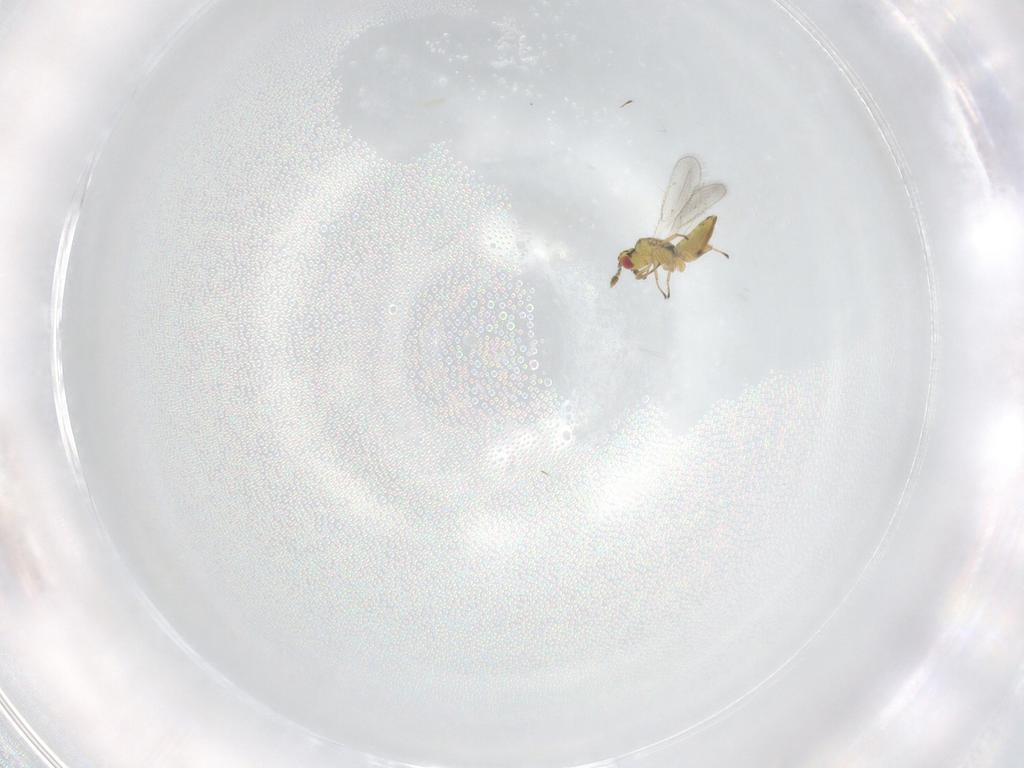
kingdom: Animalia
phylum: Arthropoda
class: Insecta
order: Hymenoptera
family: Eulophidae
